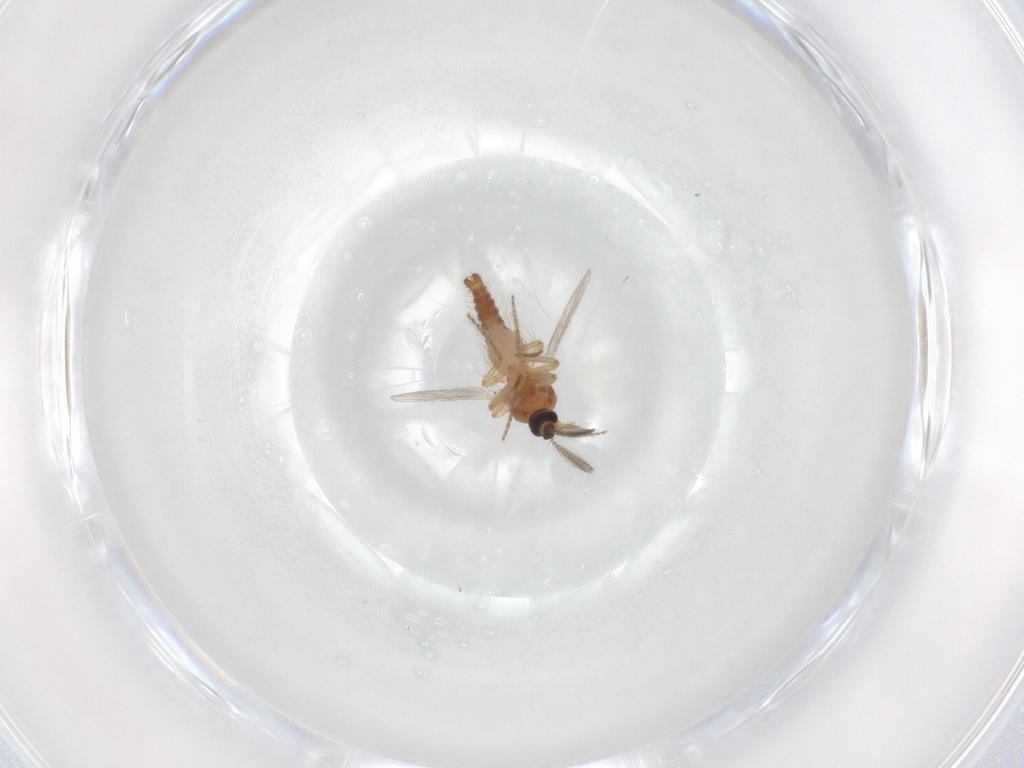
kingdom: Animalia
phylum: Arthropoda
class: Insecta
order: Diptera
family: Ceratopogonidae
